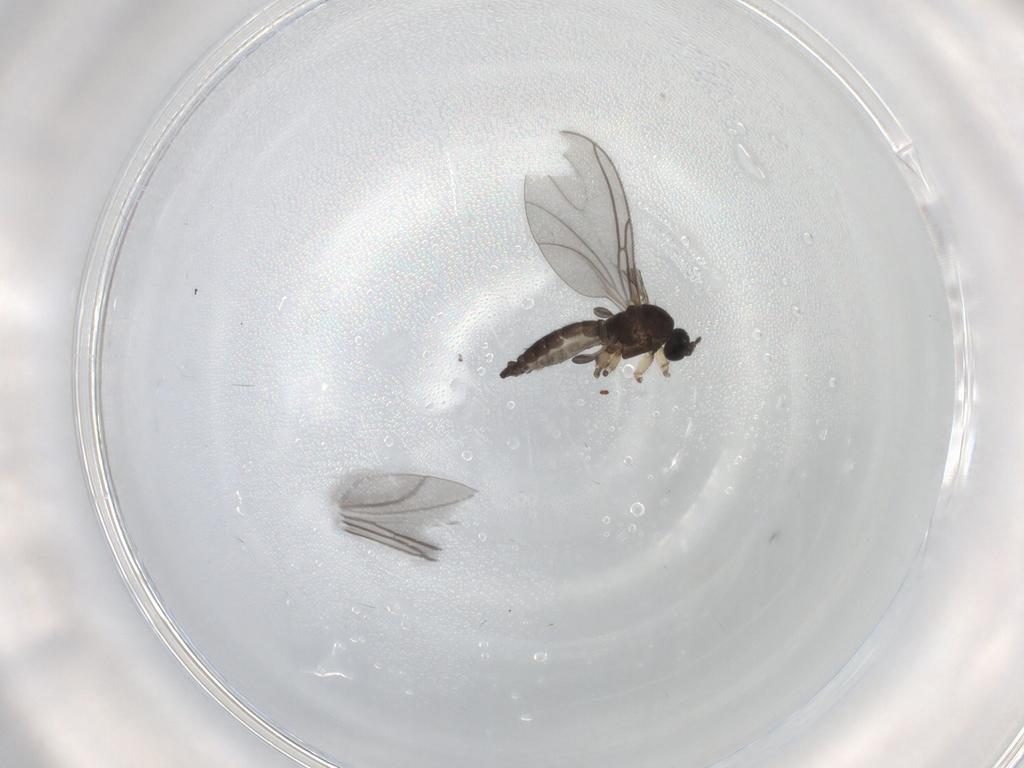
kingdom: Animalia
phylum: Arthropoda
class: Insecta
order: Diptera
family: Sciaridae
